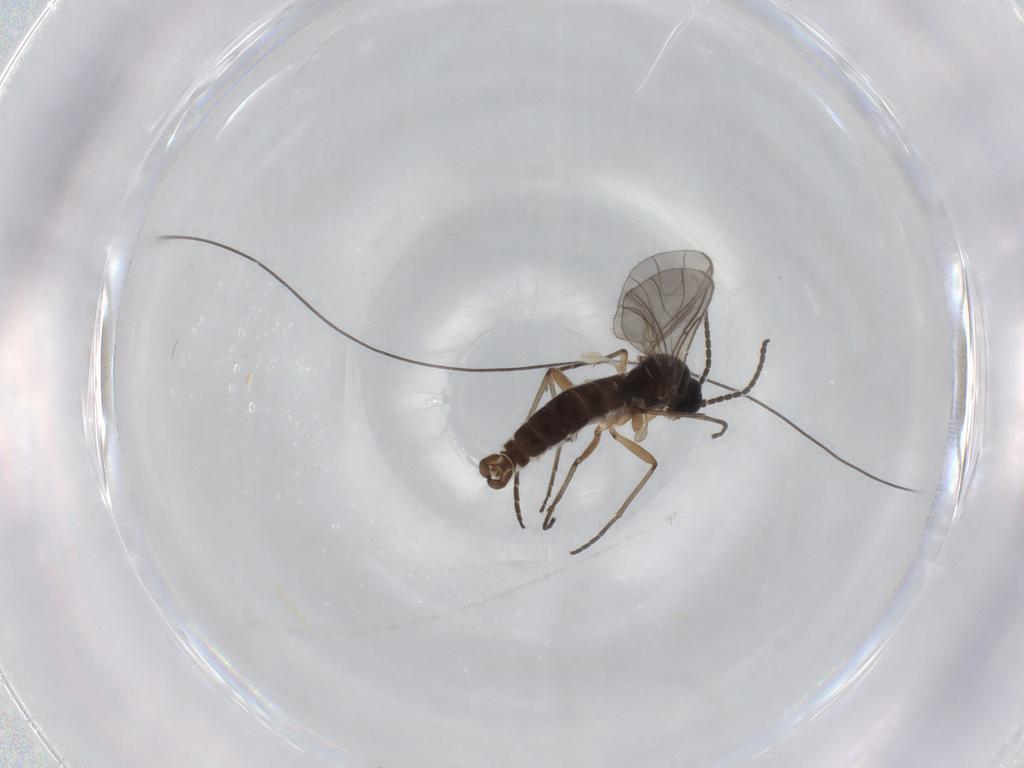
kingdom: Animalia
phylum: Arthropoda
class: Insecta
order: Diptera
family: Sciaridae
